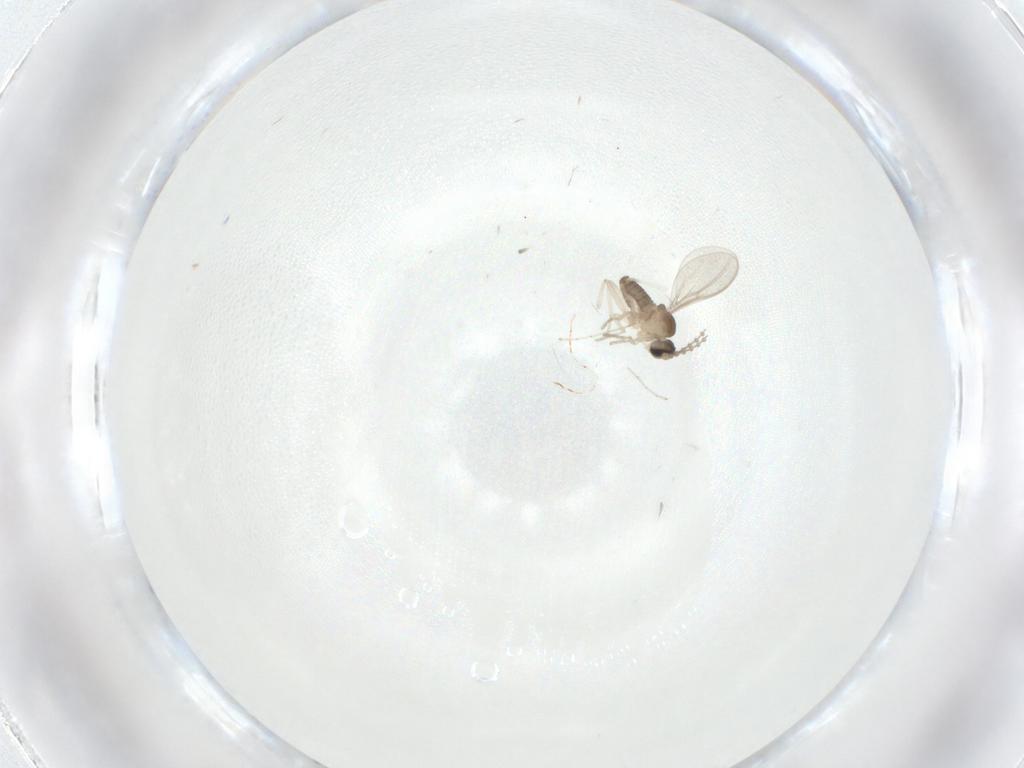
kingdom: Animalia
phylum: Arthropoda
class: Insecta
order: Diptera
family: Cecidomyiidae
